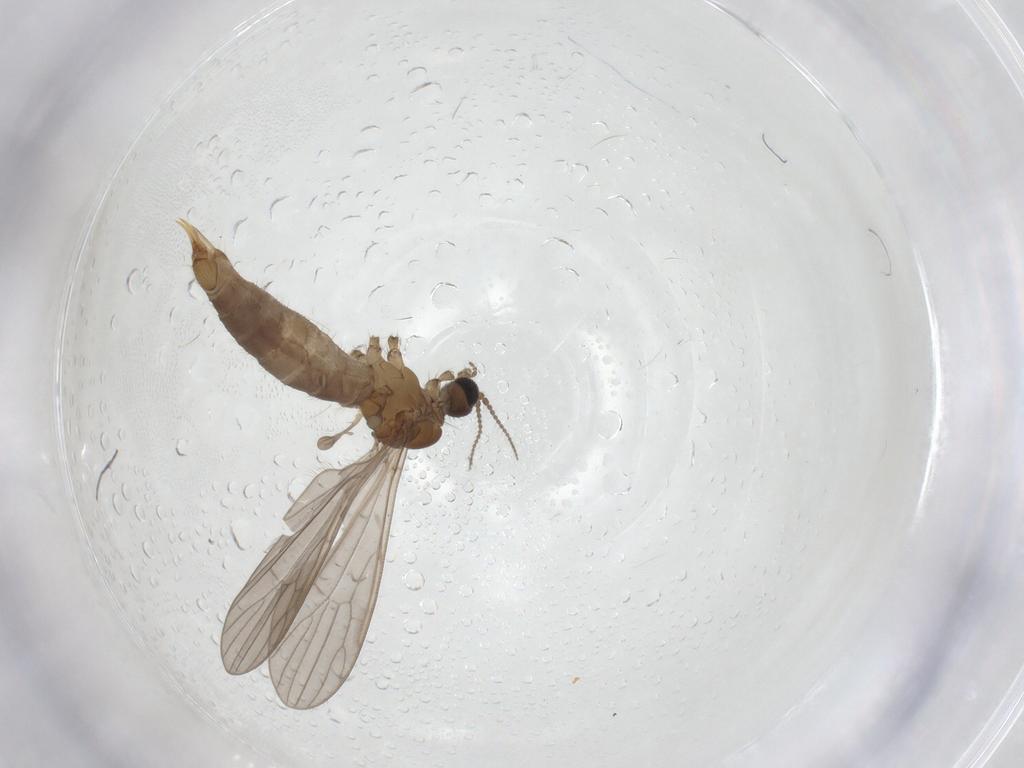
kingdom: Animalia
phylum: Arthropoda
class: Insecta
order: Diptera
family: Limoniidae
